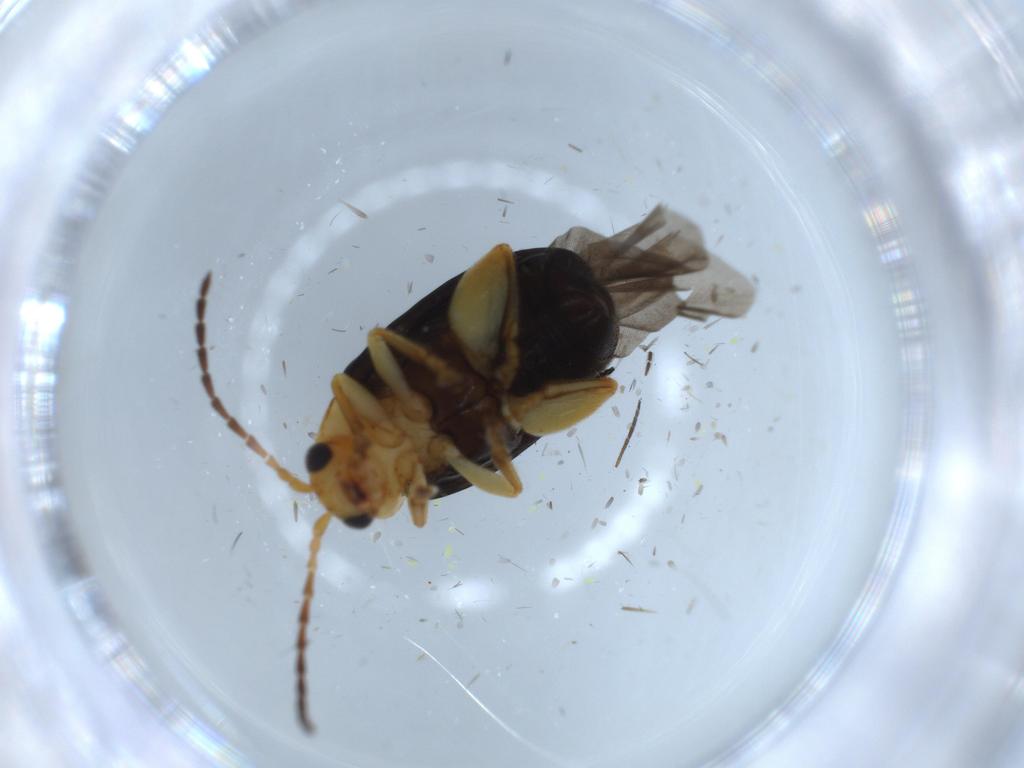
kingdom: Animalia
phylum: Arthropoda
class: Insecta
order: Coleoptera
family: Chrysomelidae
